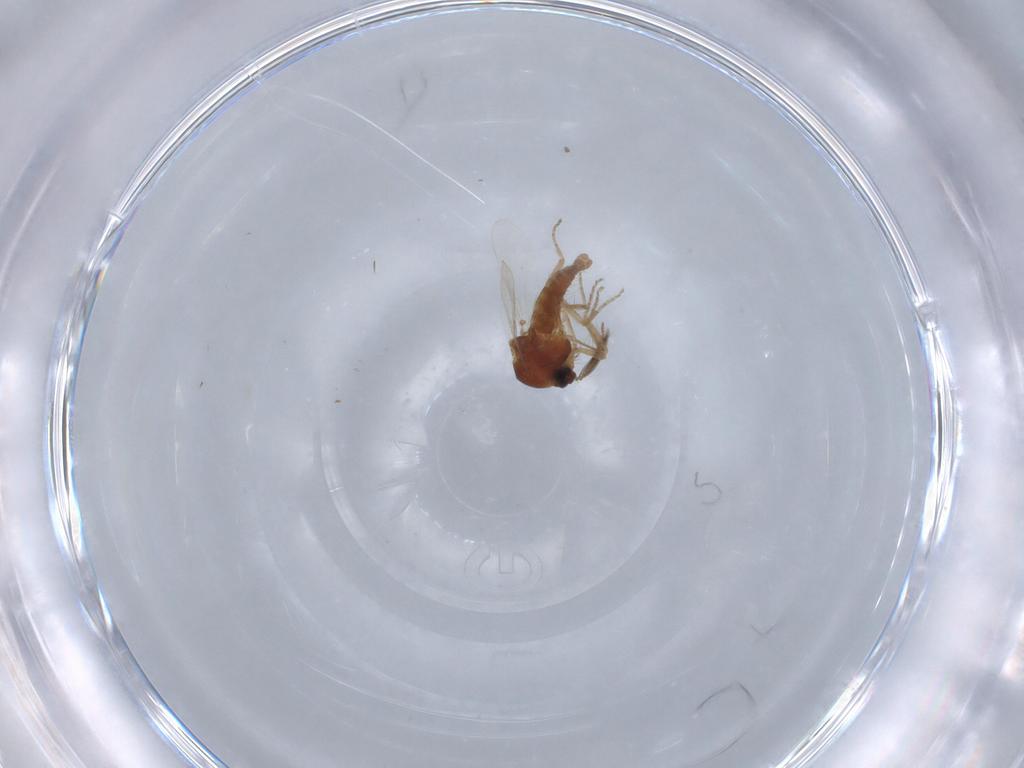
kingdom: Animalia
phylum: Arthropoda
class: Insecta
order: Diptera
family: Ceratopogonidae
